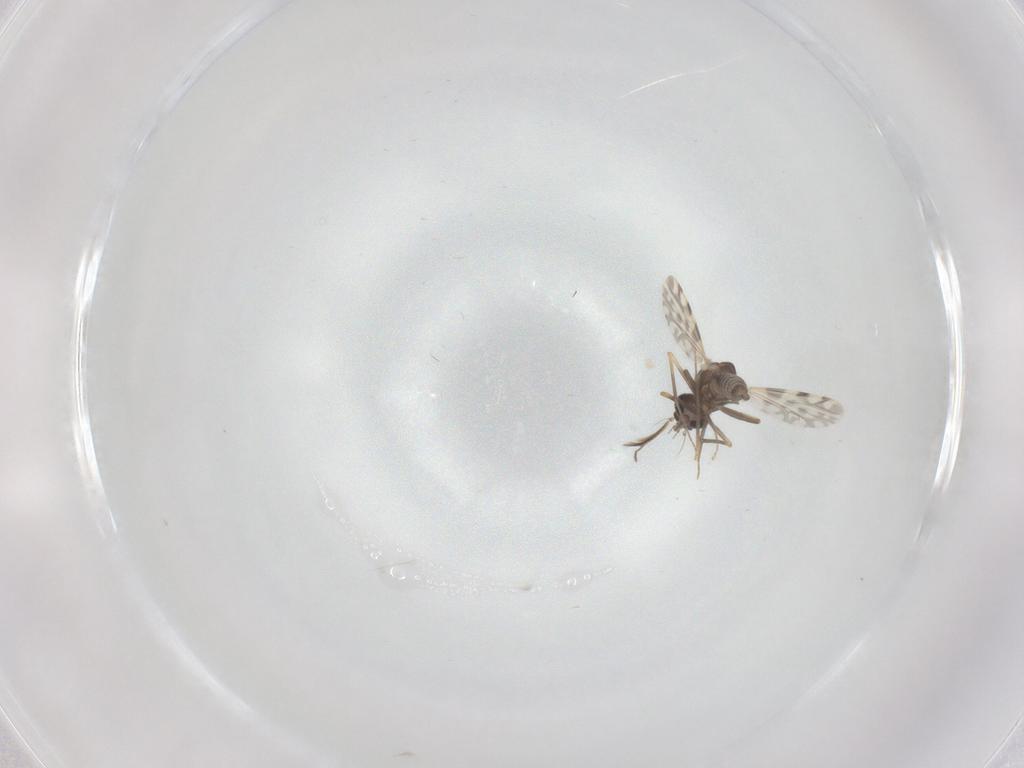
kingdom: Animalia
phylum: Arthropoda
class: Insecta
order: Diptera
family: Ceratopogonidae
